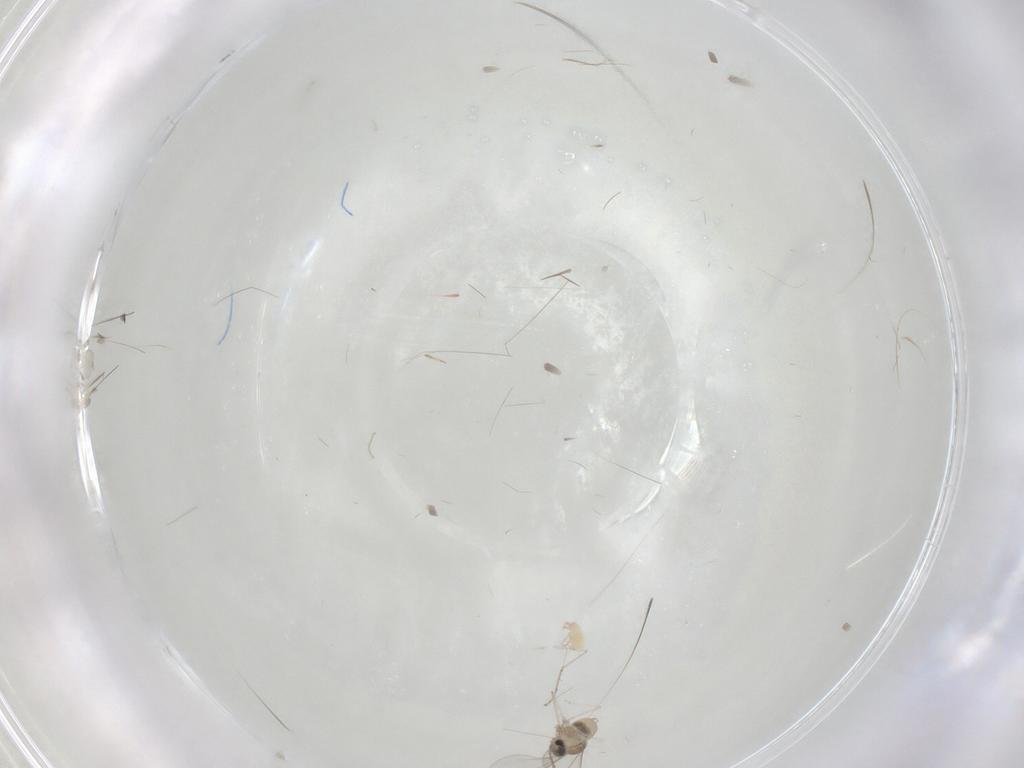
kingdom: Animalia
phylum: Arthropoda
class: Insecta
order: Diptera
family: Cecidomyiidae
